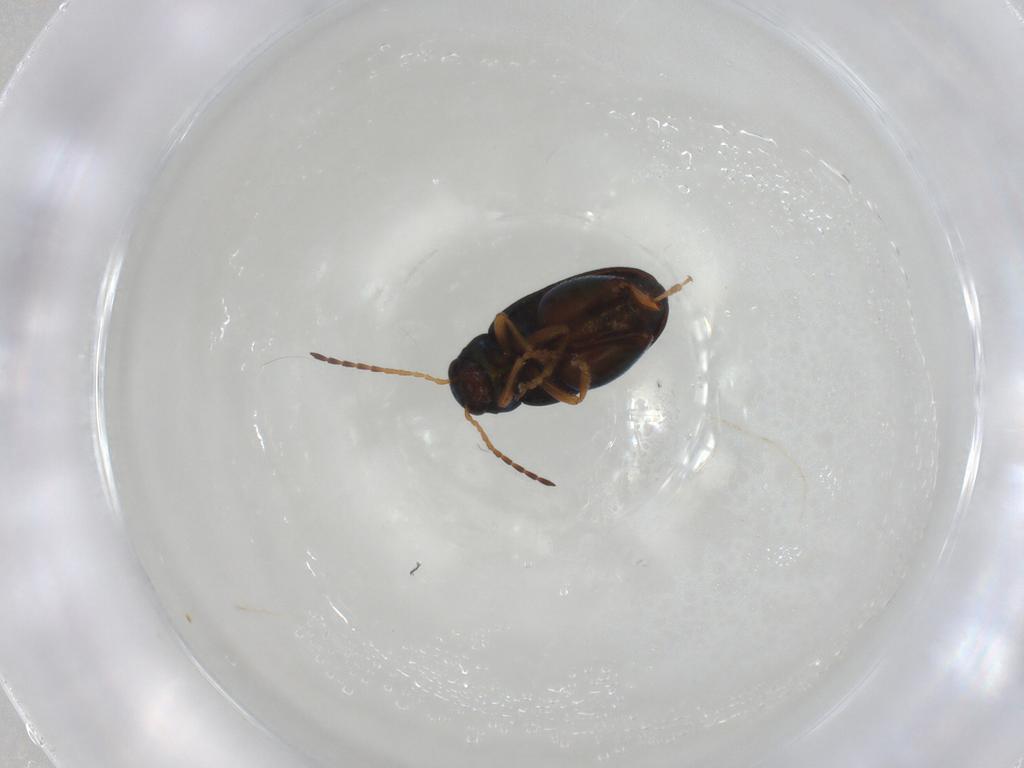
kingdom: Animalia
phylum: Arthropoda
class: Insecta
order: Coleoptera
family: Chrysomelidae
